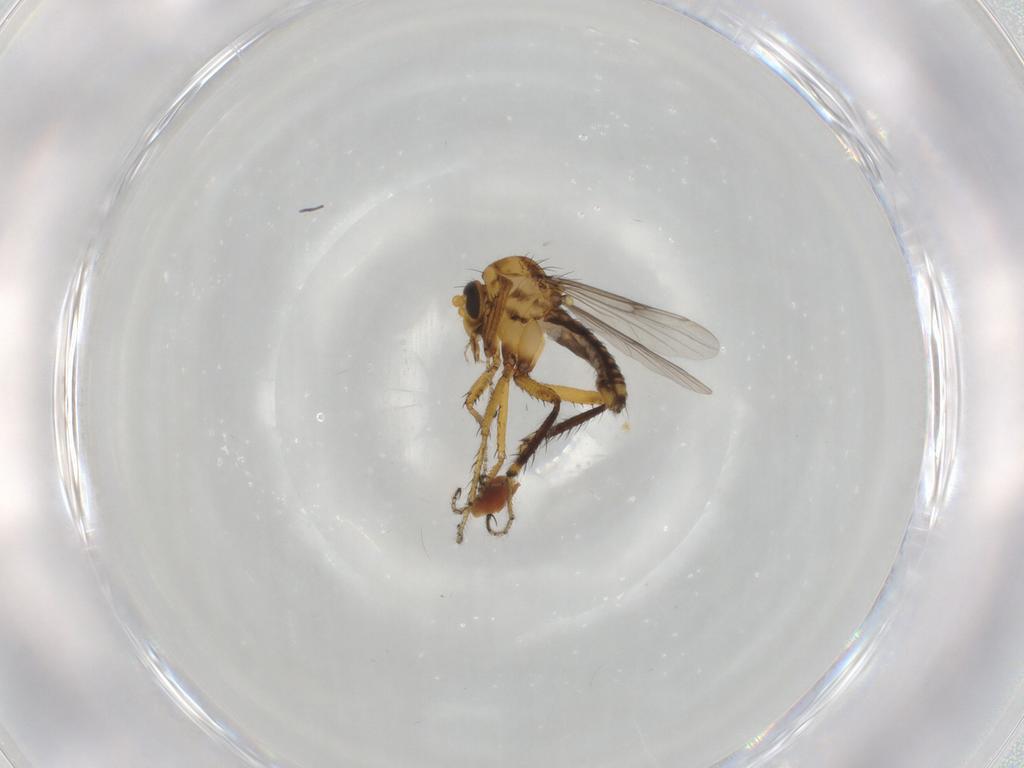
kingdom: Animalia
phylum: Arthropoda
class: Insecta
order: Diptera
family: Ceratopogonidae
